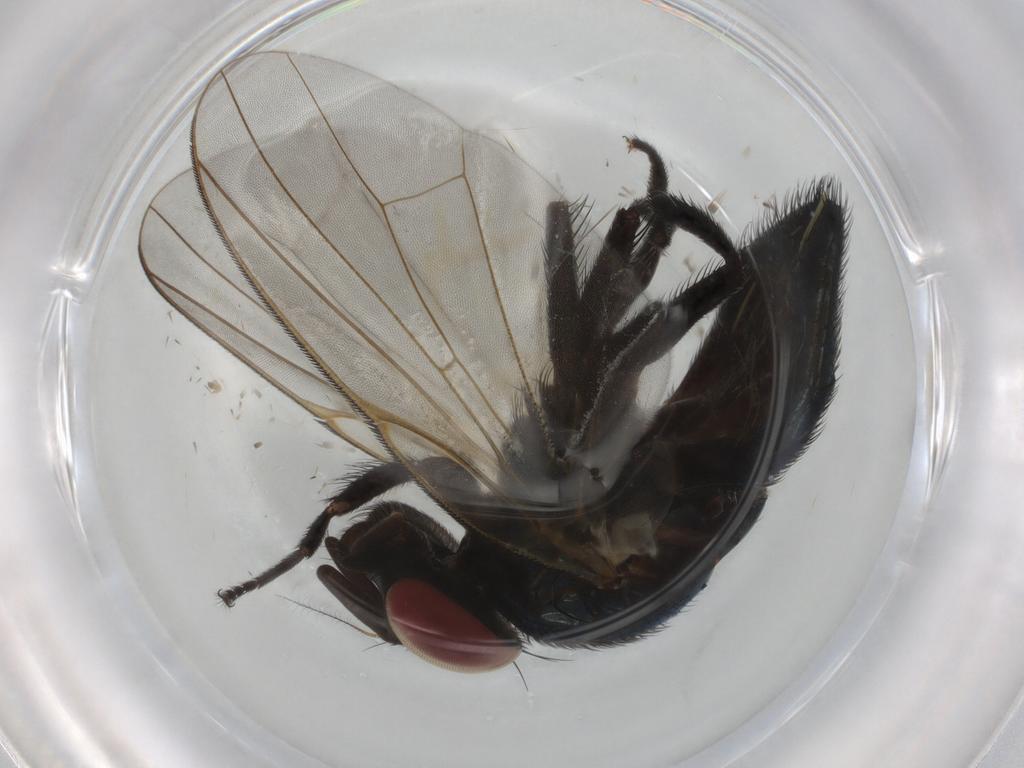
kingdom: Animalia
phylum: Arthropoda
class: Insecta
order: Diptera
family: Lonchaeidae
